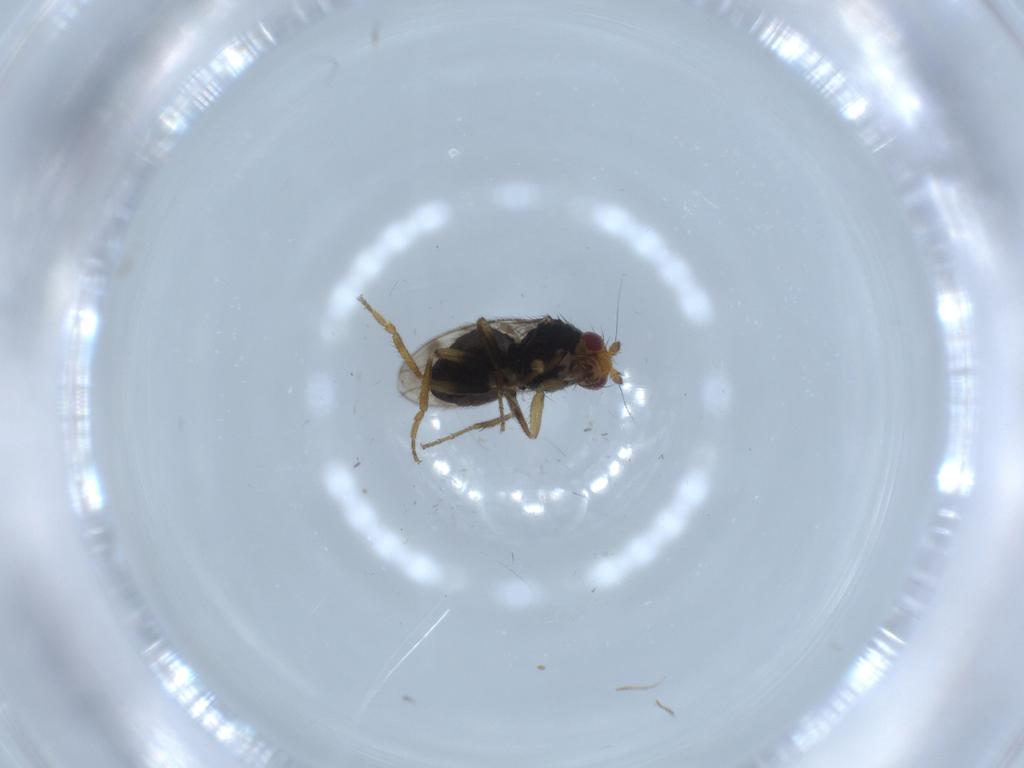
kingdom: Animalia
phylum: Arthropoda
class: Insecta
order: Diptera
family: Sphaeroceridae
